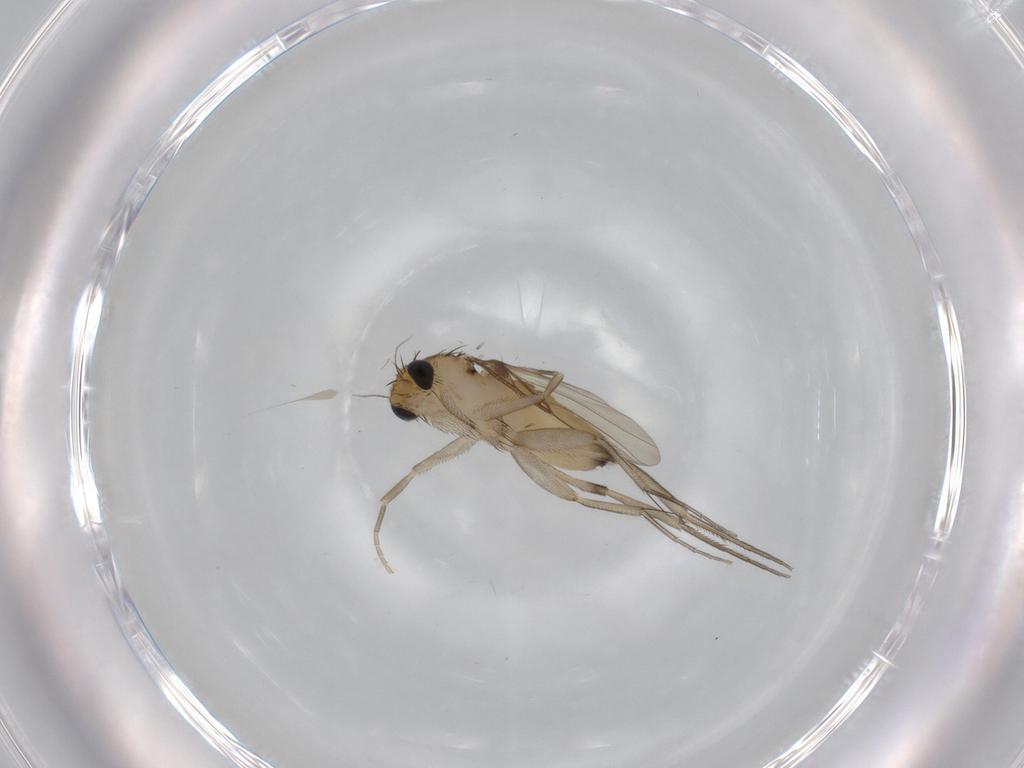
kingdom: Animalia
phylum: Arthropoda
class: Insecta
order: Diptera
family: Phoridae
